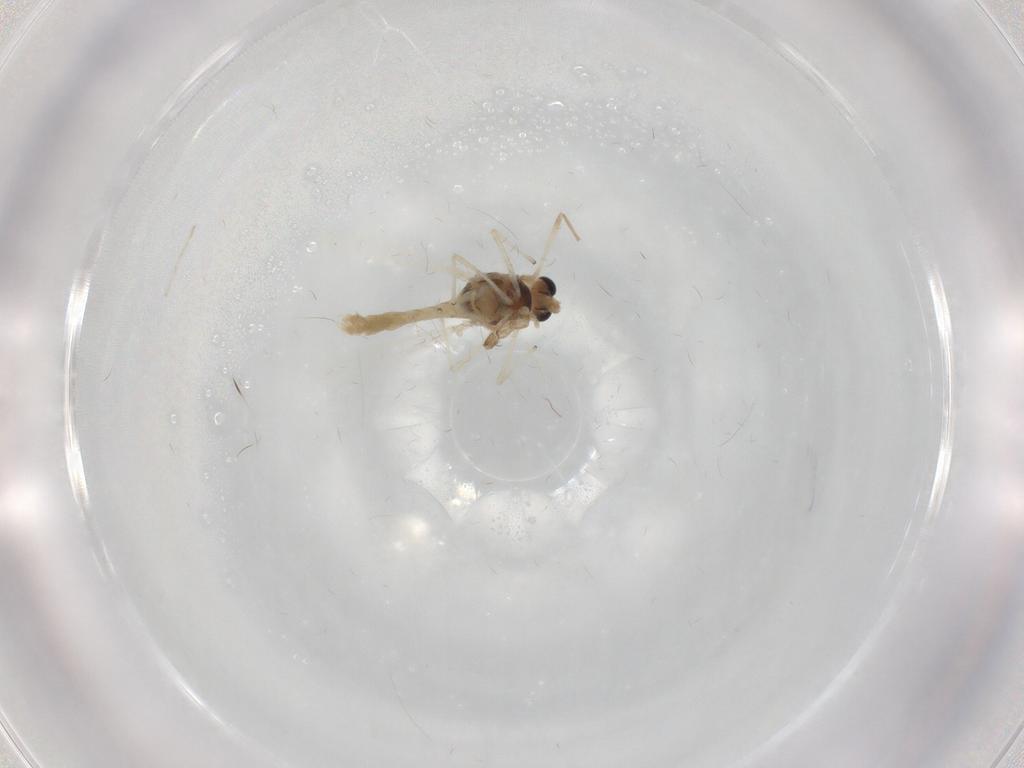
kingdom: Animalia
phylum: Arthropoda
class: Insecta
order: Diptera
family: Chironomidae
